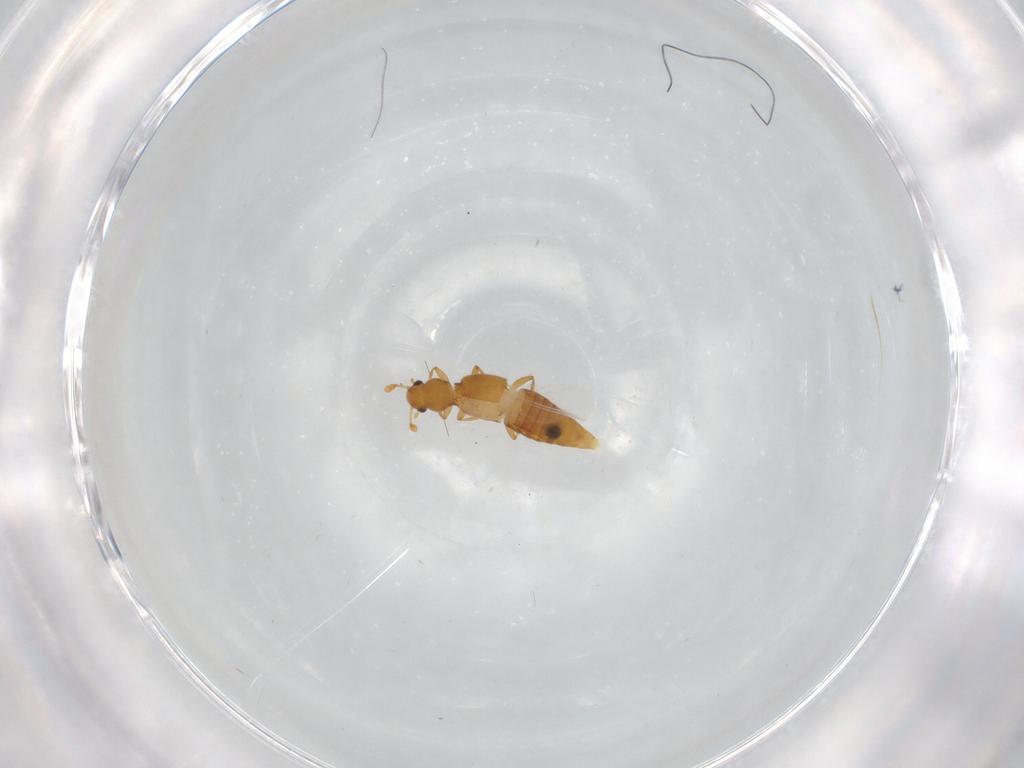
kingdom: Animalia
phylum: Arthropoda
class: Insecta
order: Coleoptera
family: Staphylinidae
